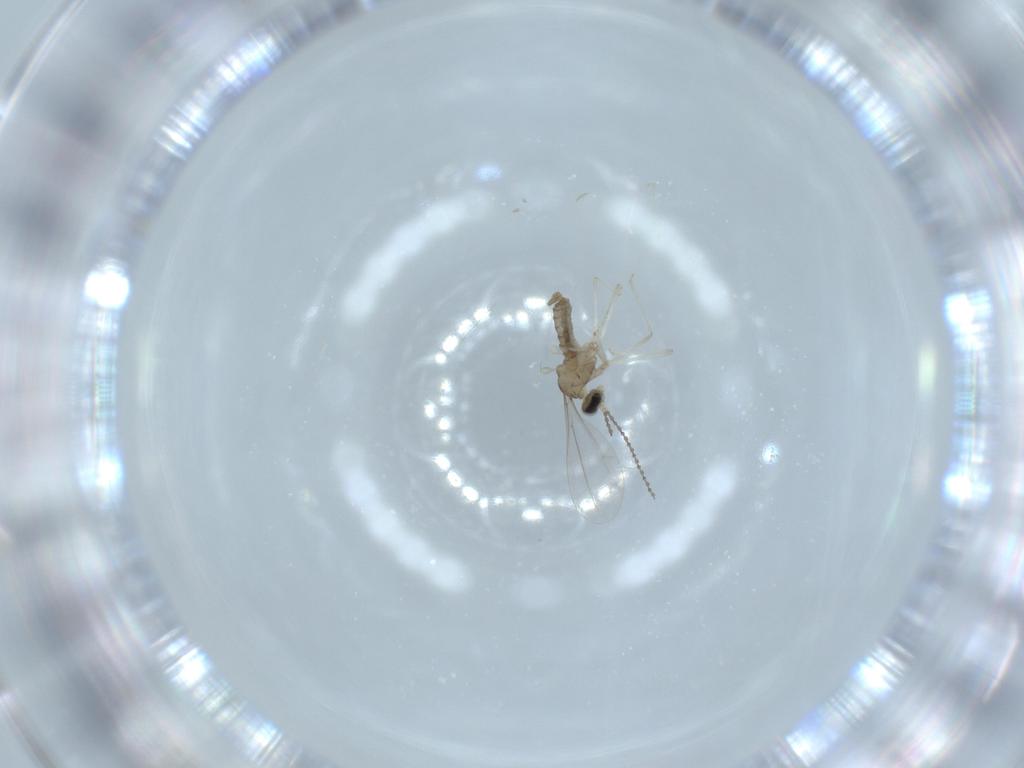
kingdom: Animalia
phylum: Arthropoda
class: Insecta
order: Diptera
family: Cecidomyiidae
